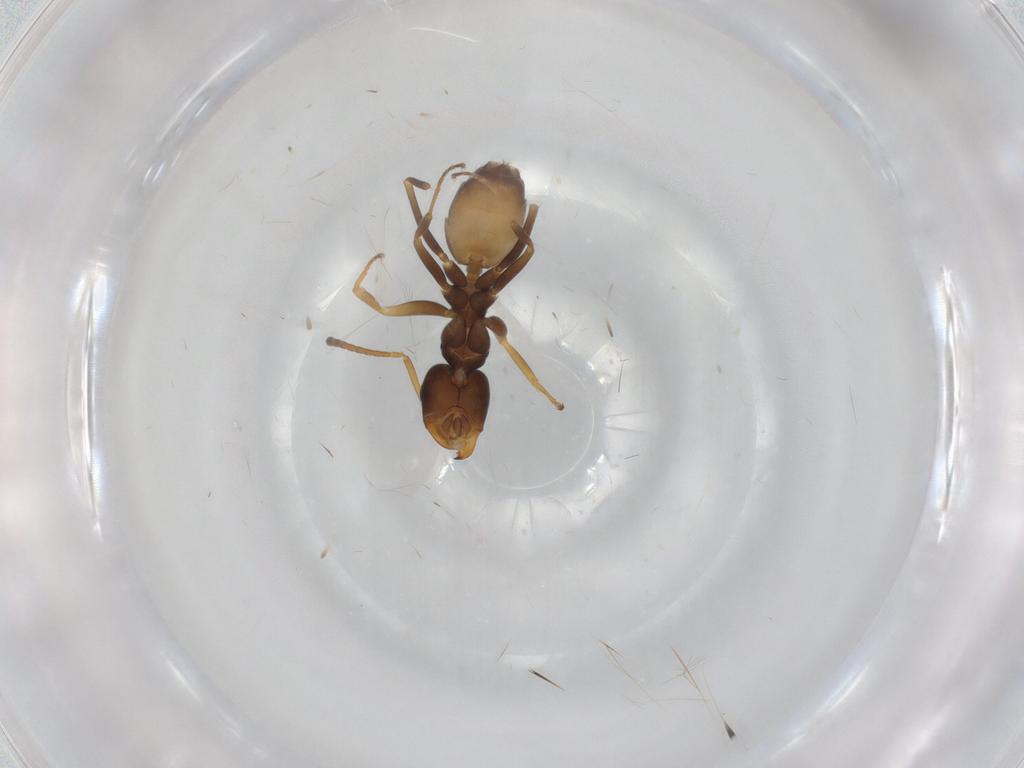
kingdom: Animalia
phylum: Arthropoda
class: Insecta
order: Hymenoptera
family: Formicidae
